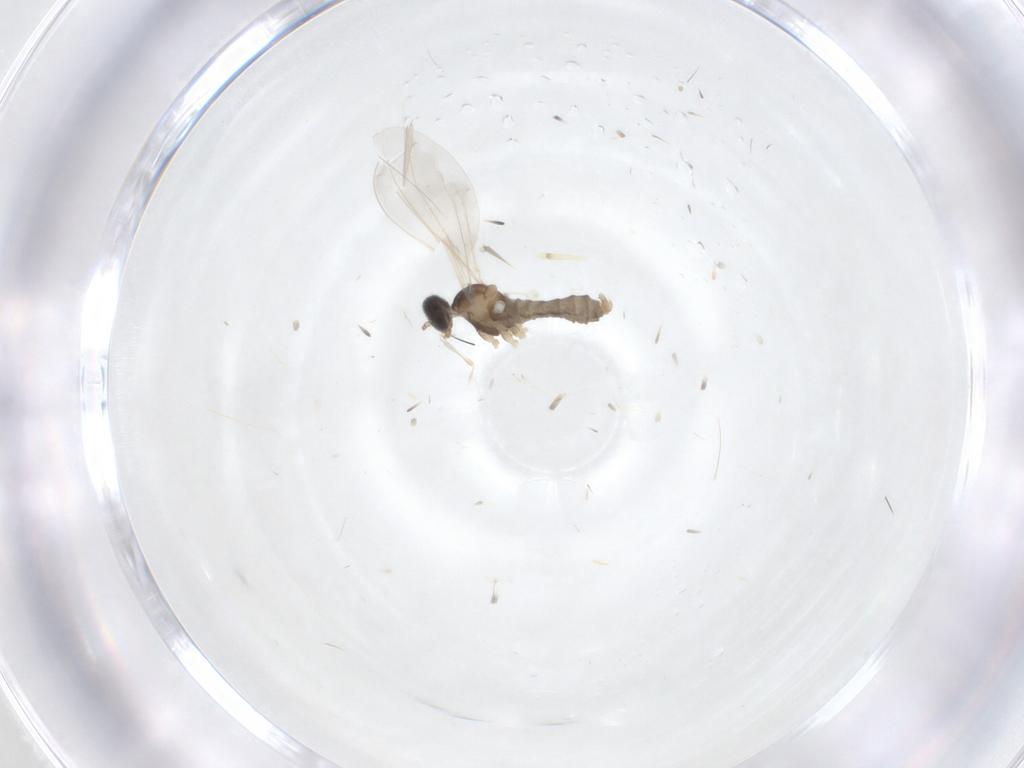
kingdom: Animalia
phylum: Arthropoda
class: Insecta
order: Diptera
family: Cecidomyiidae
